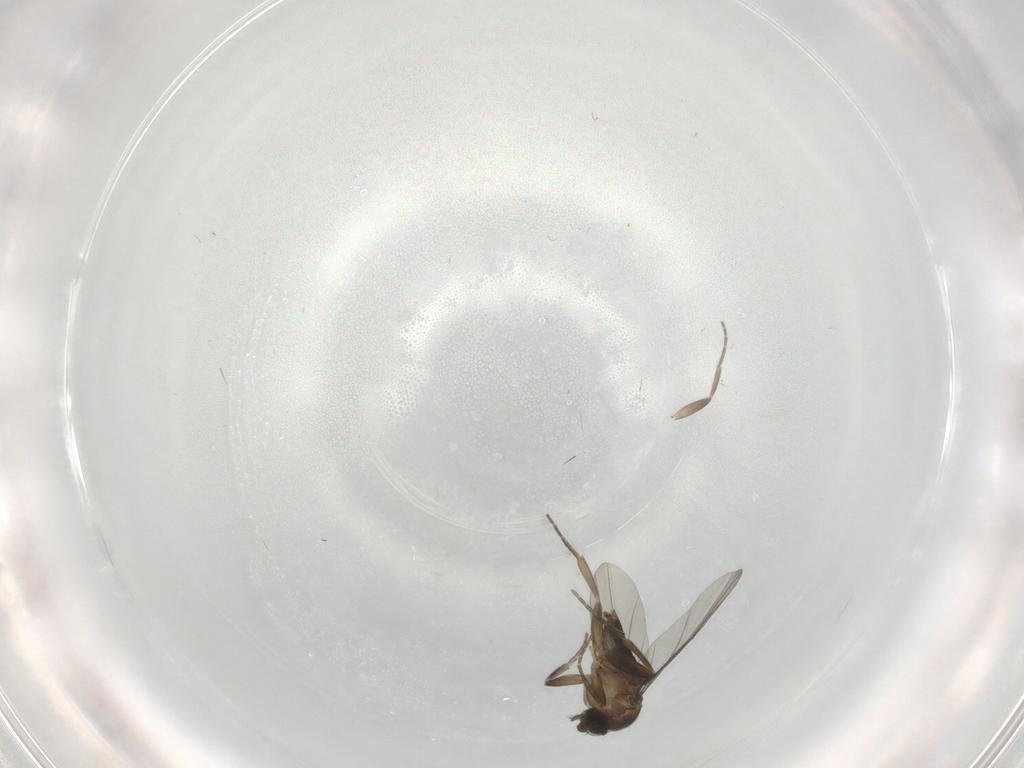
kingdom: Animalia
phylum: Arthropoda
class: Insecta
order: Diptera
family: Phoridae
